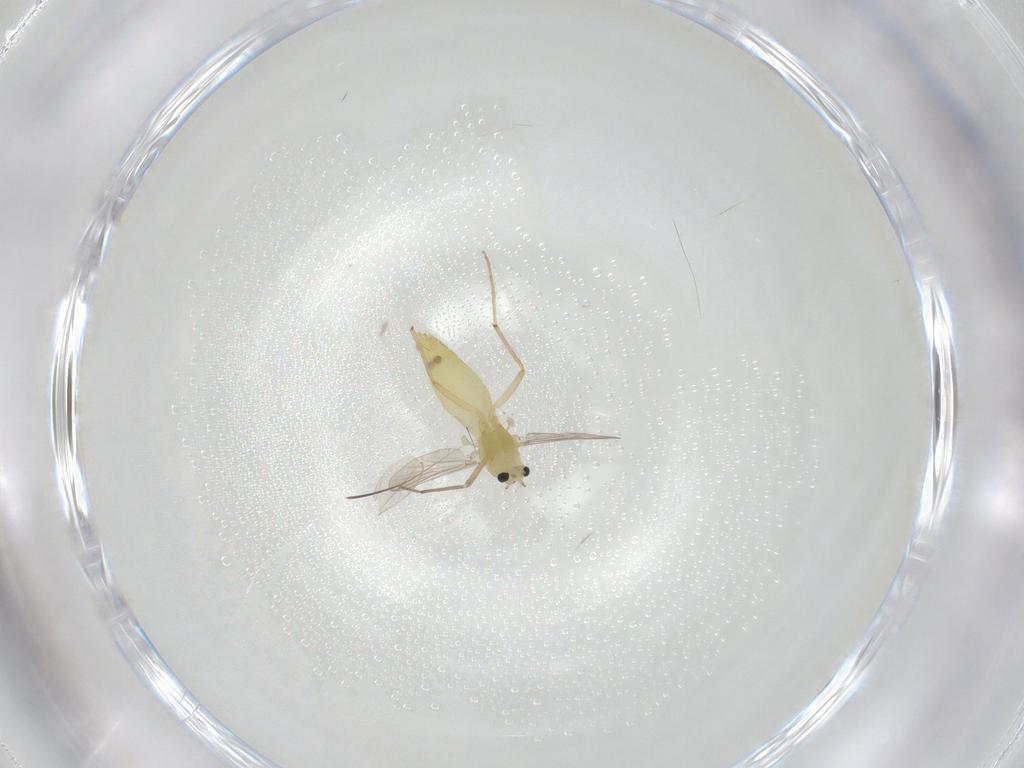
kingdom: Animalia
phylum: Arthropoda
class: Insecta
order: Diptera
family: Chironomidae
